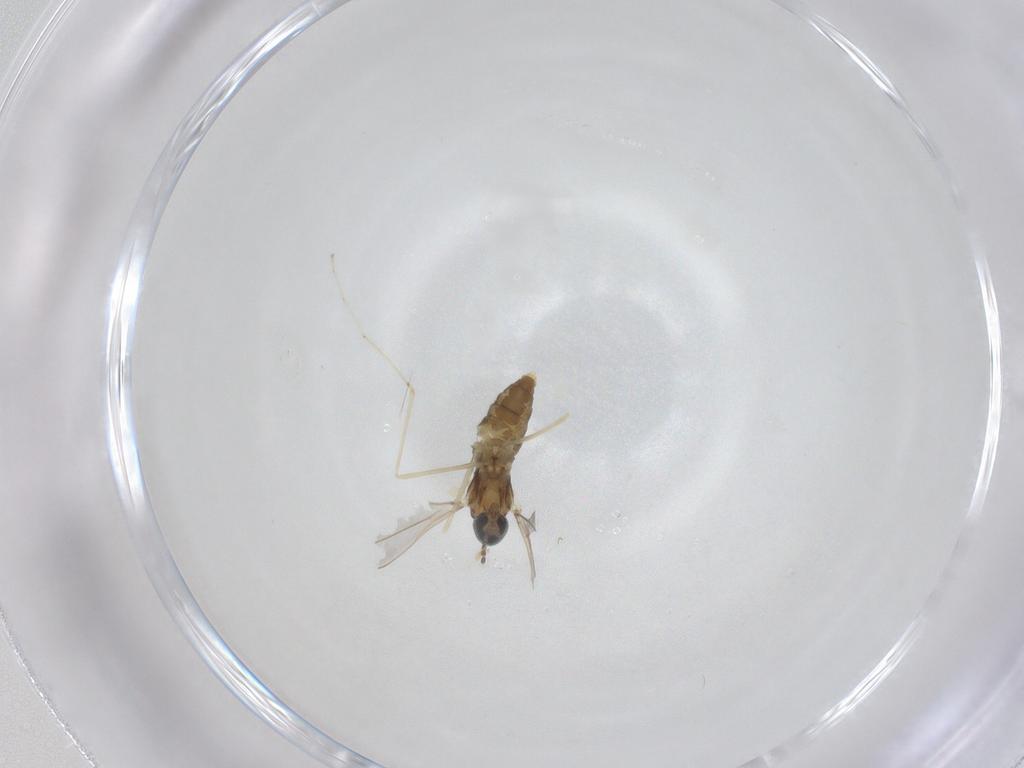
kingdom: Animalia
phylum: Arthropoda
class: Insecta
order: Diptera
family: Cecidomyiidae
